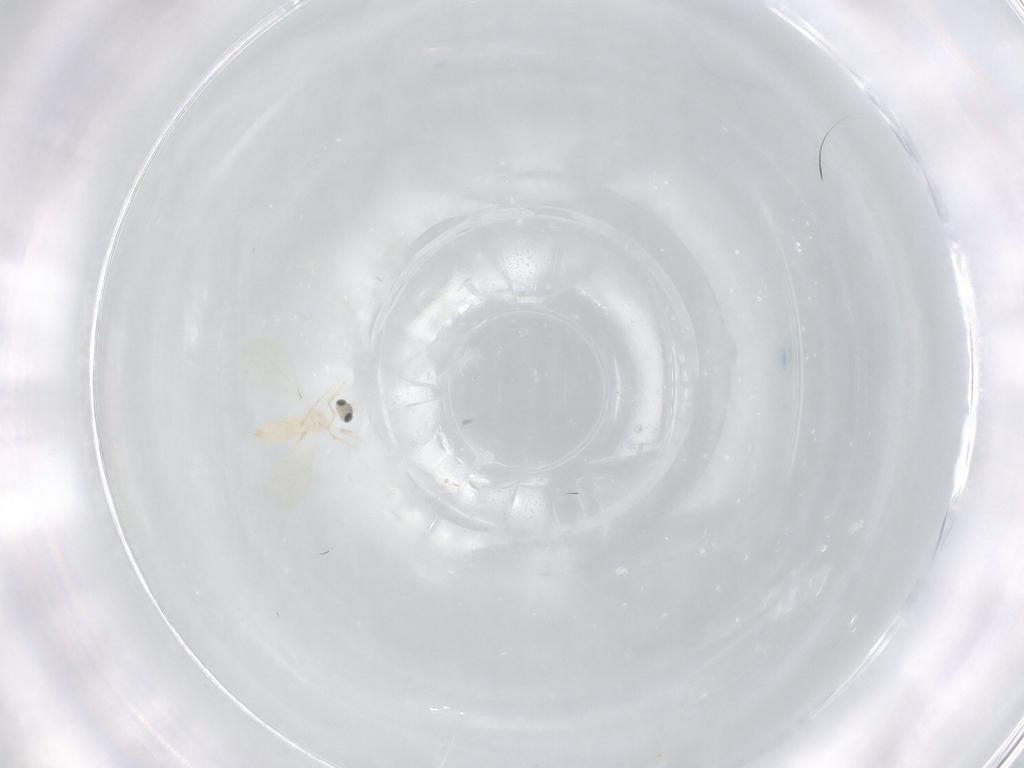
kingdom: Animalia
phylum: Arthropoda
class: Insecta
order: Diptera
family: Cecidomyiidae
